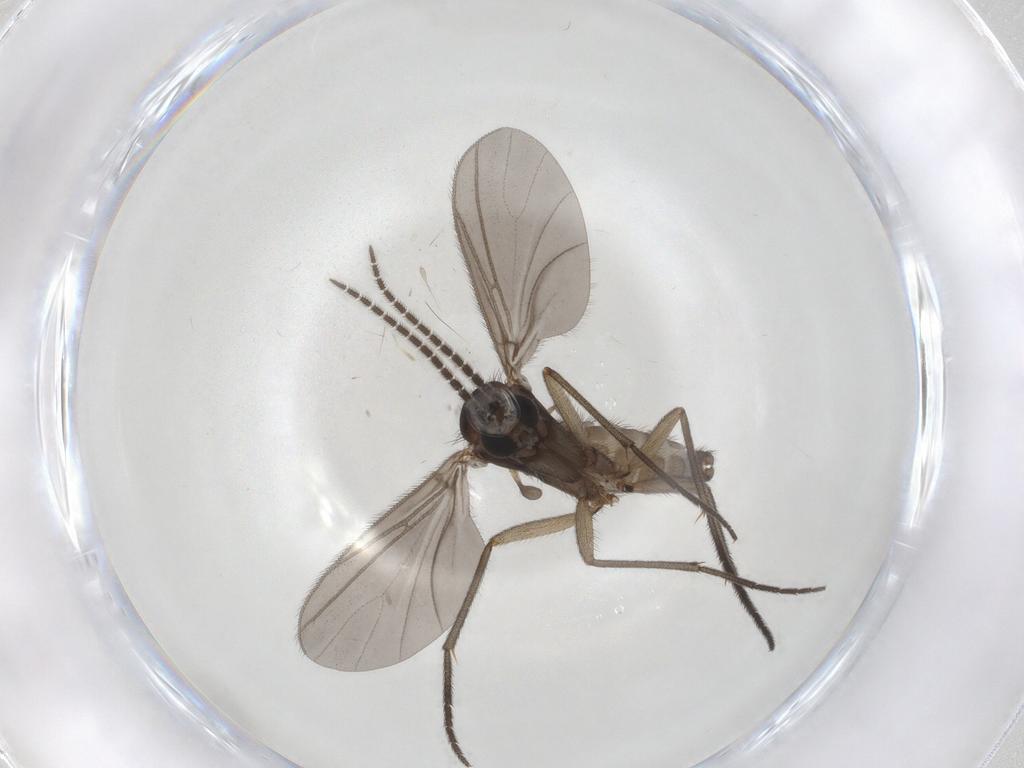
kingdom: Animalia
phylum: Arthropoda
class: Insecta
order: Diptera
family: Sciaridae
